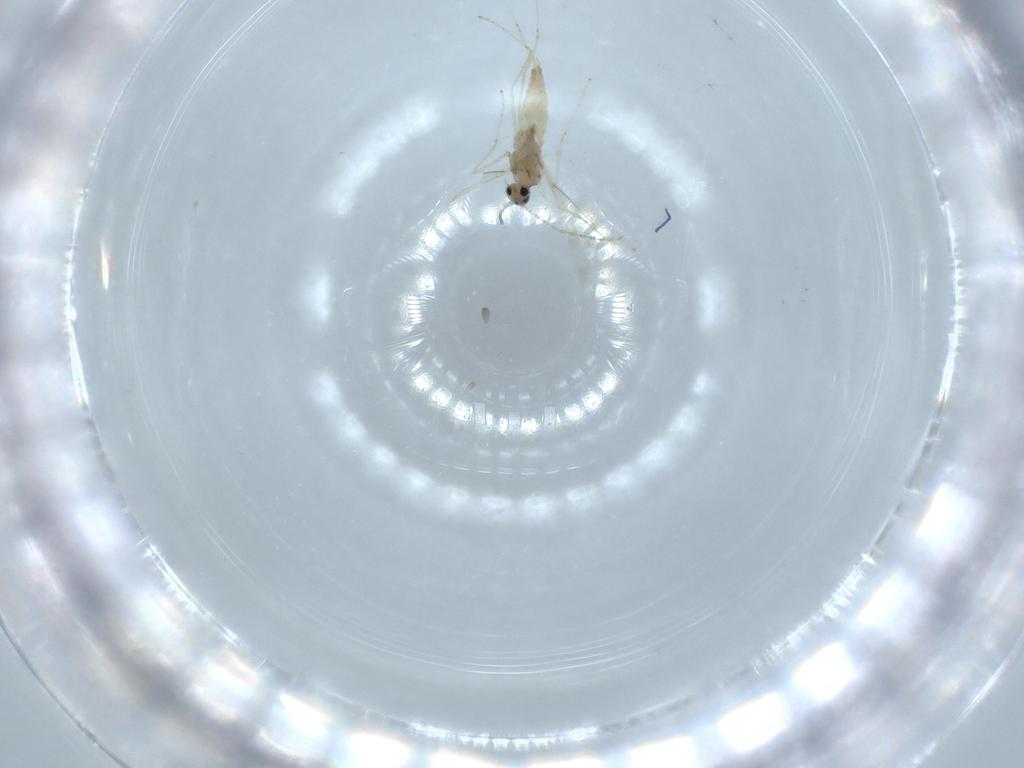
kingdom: Animalia
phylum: Arthropoda
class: Insecta
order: Diptera
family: Cecidomyiidae
